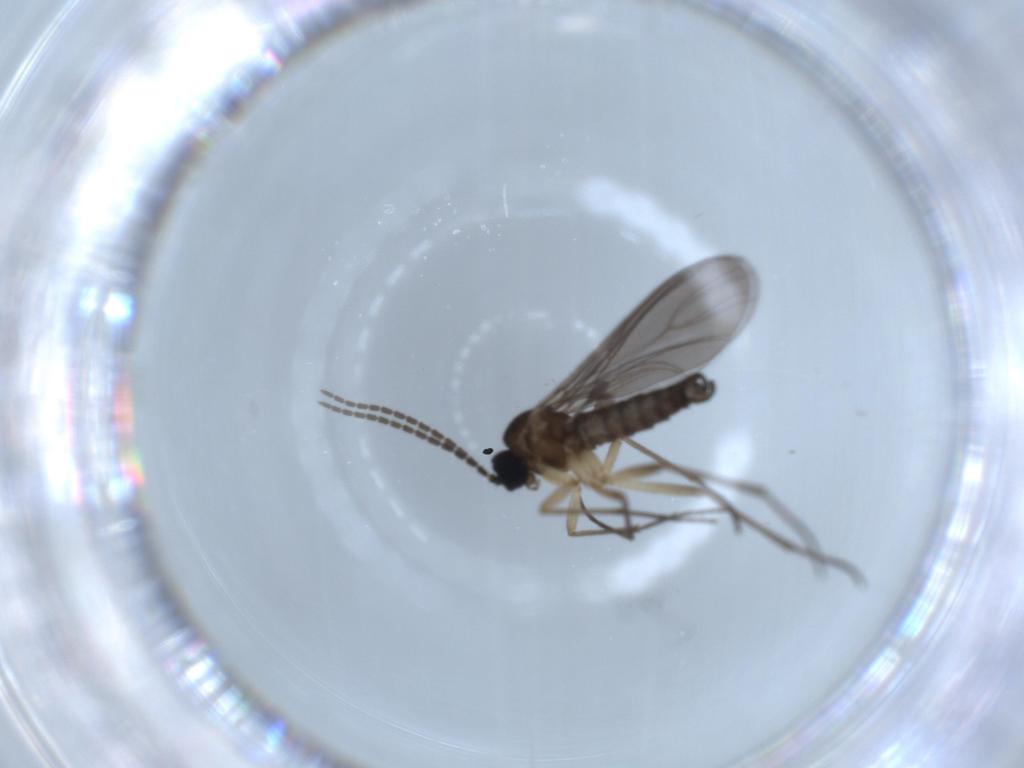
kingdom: Animalia
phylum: Arthropoda
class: Insecta
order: Diptera
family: Sciaridae
